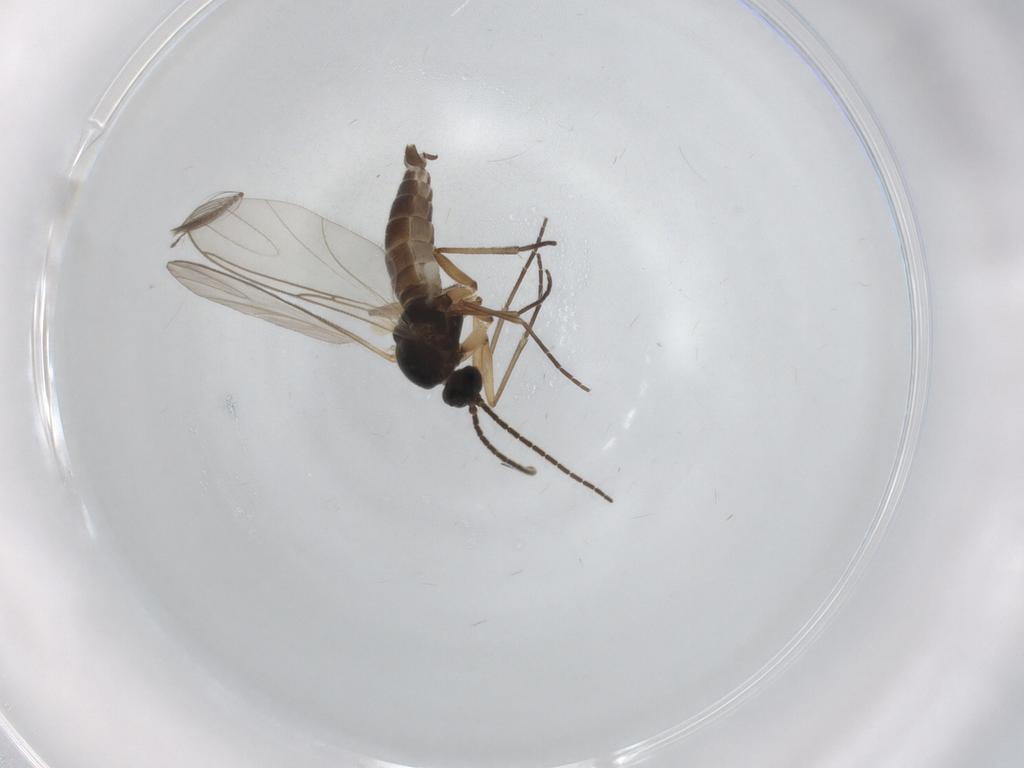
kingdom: Animalia
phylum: Arthropoda
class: Insecta
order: Diptera
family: Sciaridae
